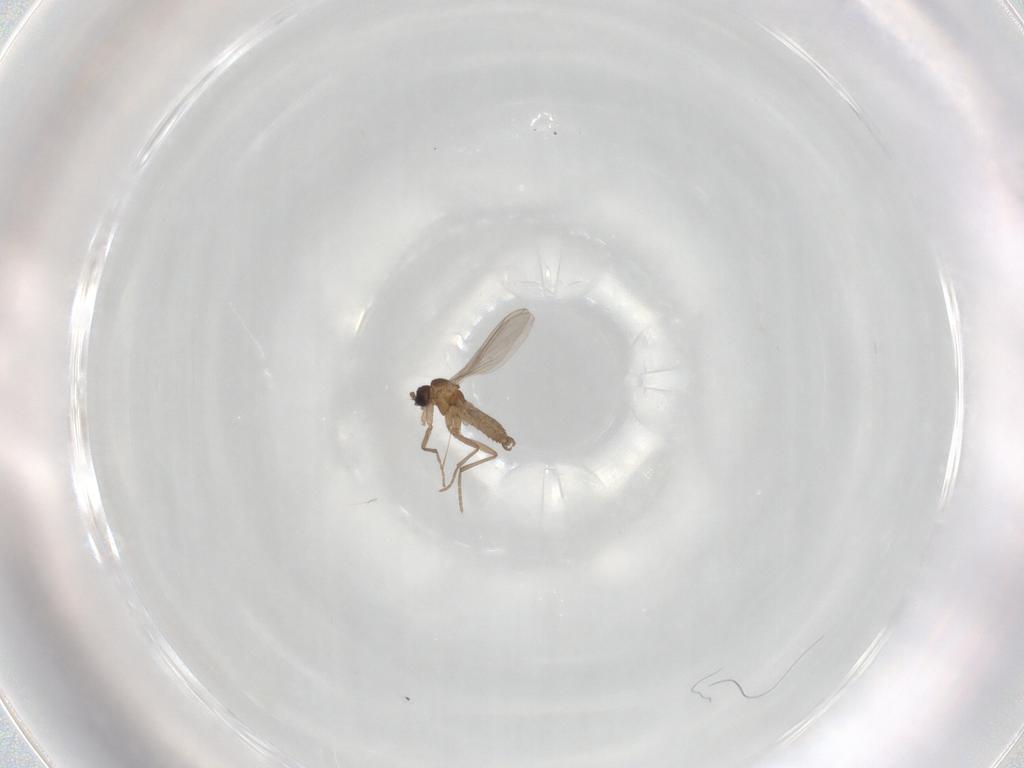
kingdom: Animalia
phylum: Arthropoda
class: Insecta
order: Diptera
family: Sciaridae
